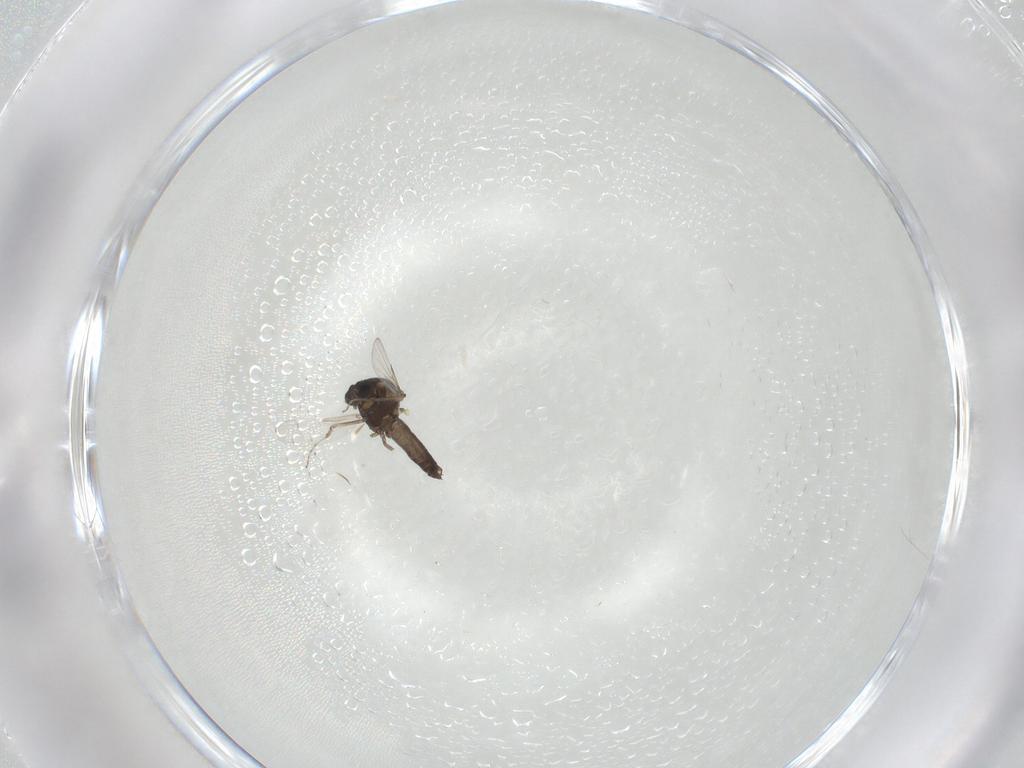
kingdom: Animalia
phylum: Arthropoda
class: Insecta
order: Diptera
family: Ceratopogonidae
